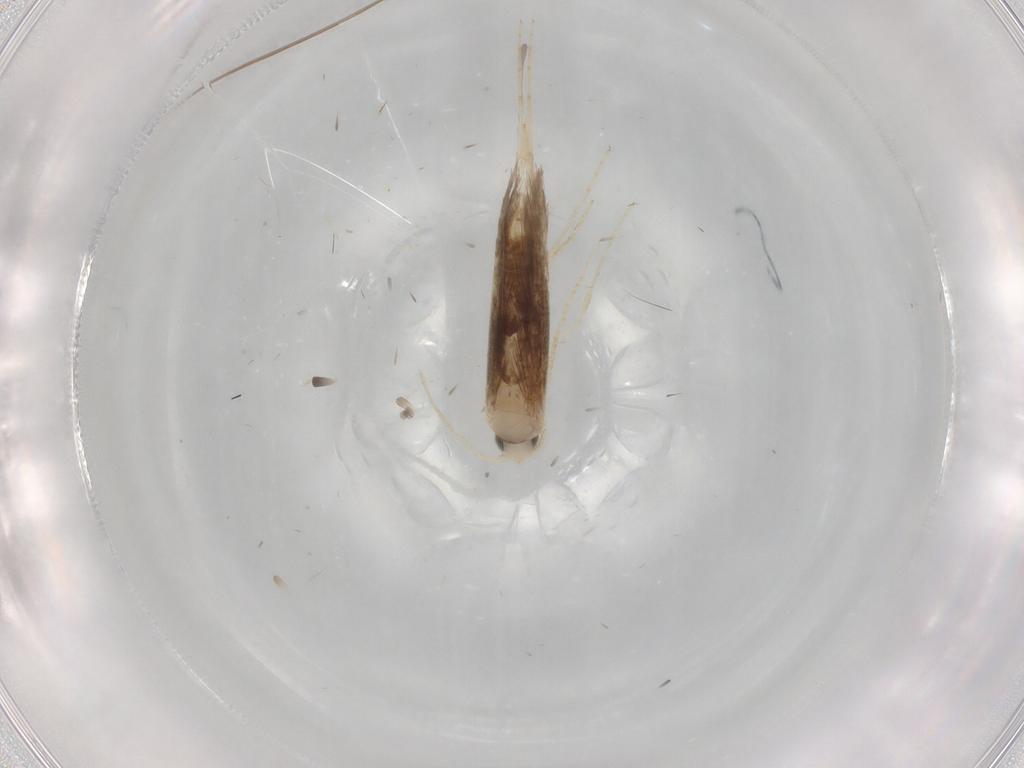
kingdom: Animalia
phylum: Arthropoda
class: Insecta
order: Lepidoptera
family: Lyonetiidae
